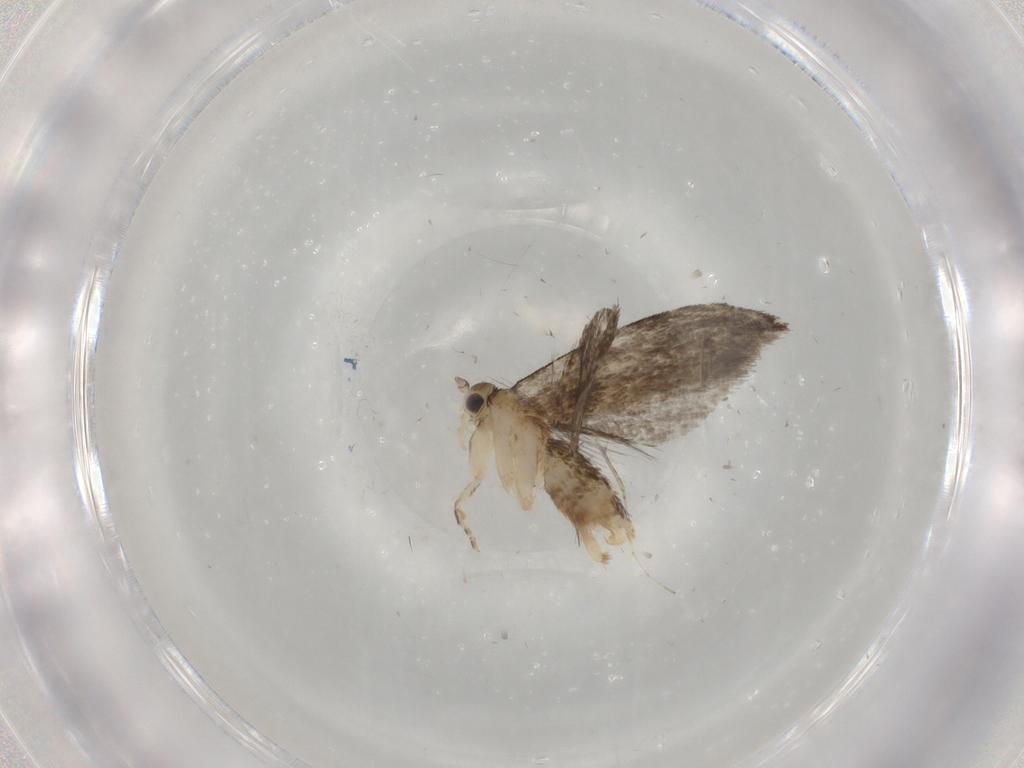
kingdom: Animalia
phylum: Arthropoda
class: Insecta
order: Lepidoptera
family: Tineidae
